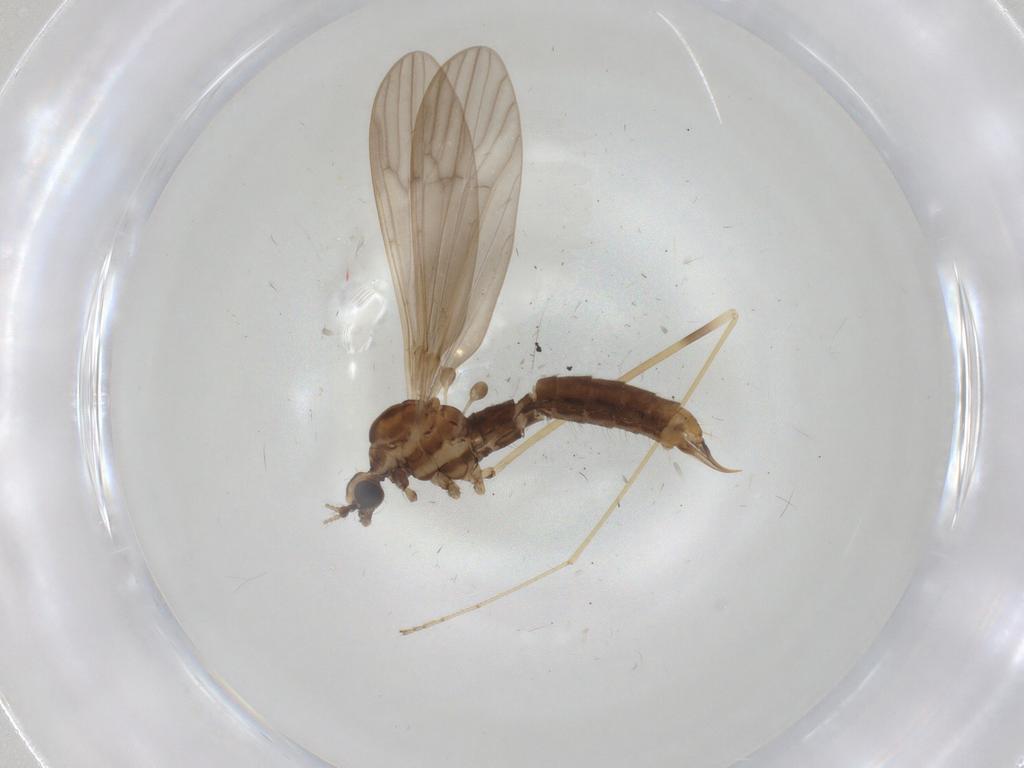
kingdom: Animalia
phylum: Arthropoda
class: Insecta
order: Diptera
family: Limoniidae
